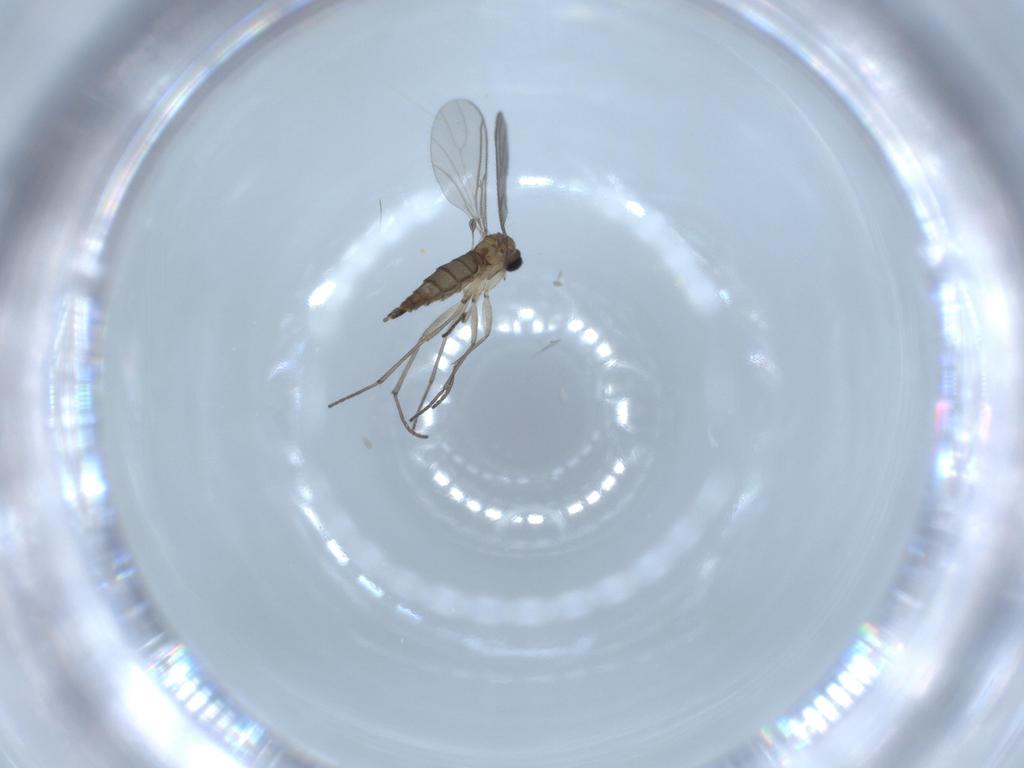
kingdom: Animalia
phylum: Arthropoda
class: Insecta
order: Diptera
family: Sciaridae
